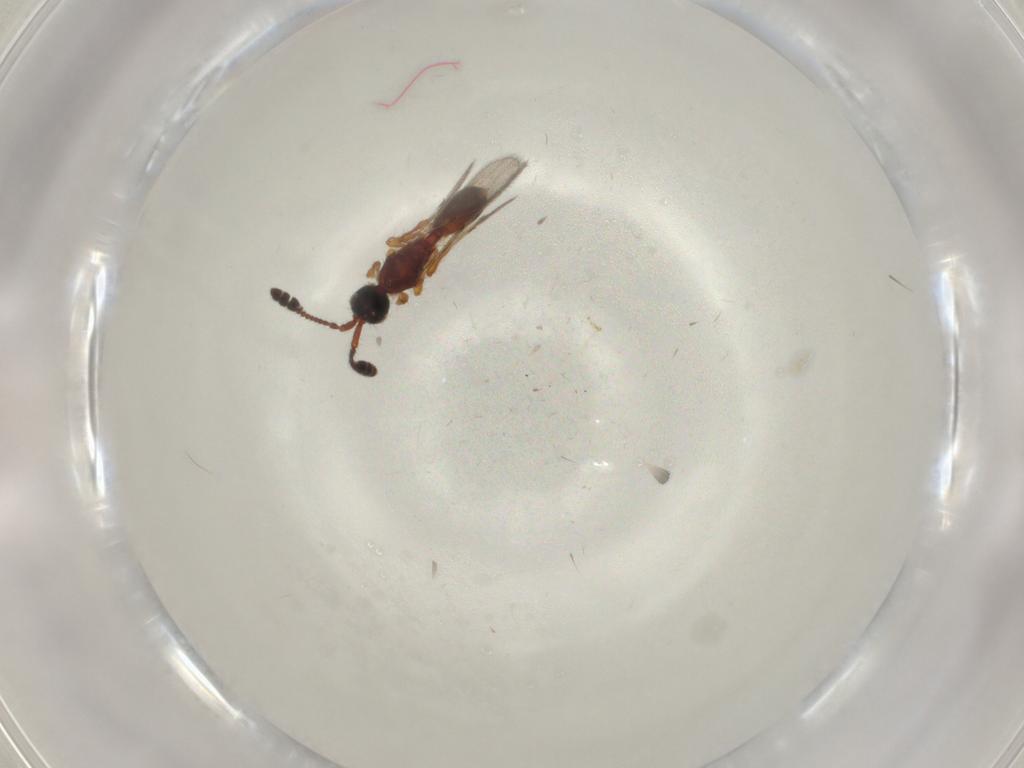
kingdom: Animalia
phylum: Arthropoda
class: Insecta
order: Hymenoptera
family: Diapriidae
